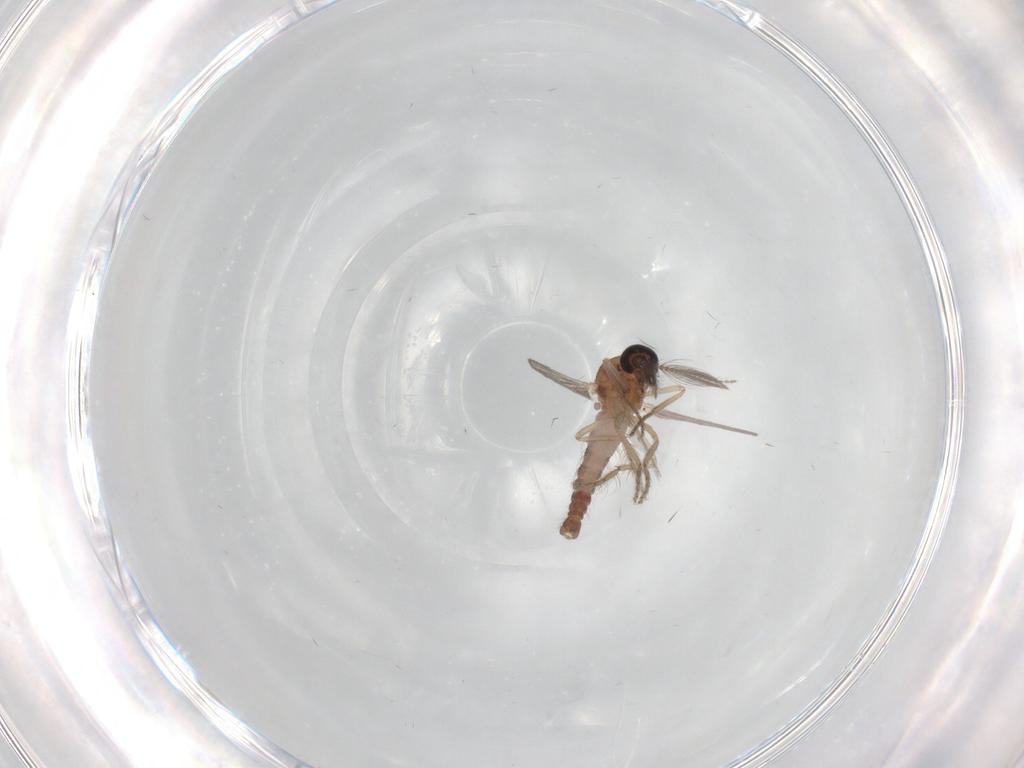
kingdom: Animalia
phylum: Arthropoda
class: Insecta
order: Diptera
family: Ceratopogonidae
